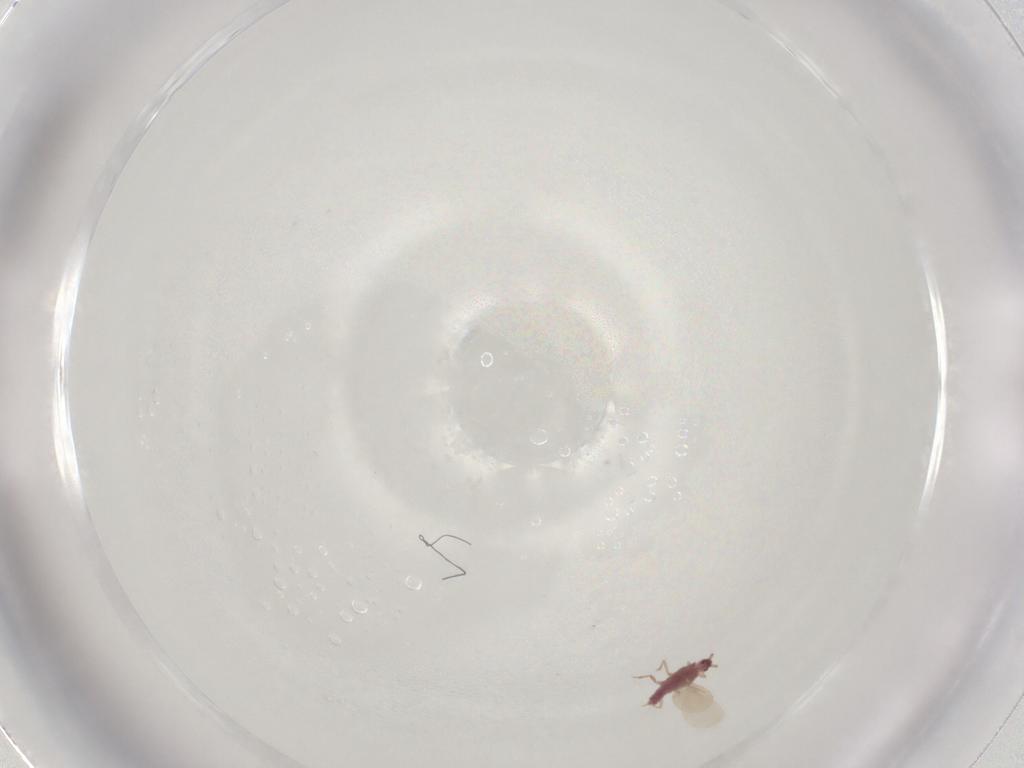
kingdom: Animalia
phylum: Arthropoda
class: Insecta
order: Hemiptera
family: Pseudococcidae
